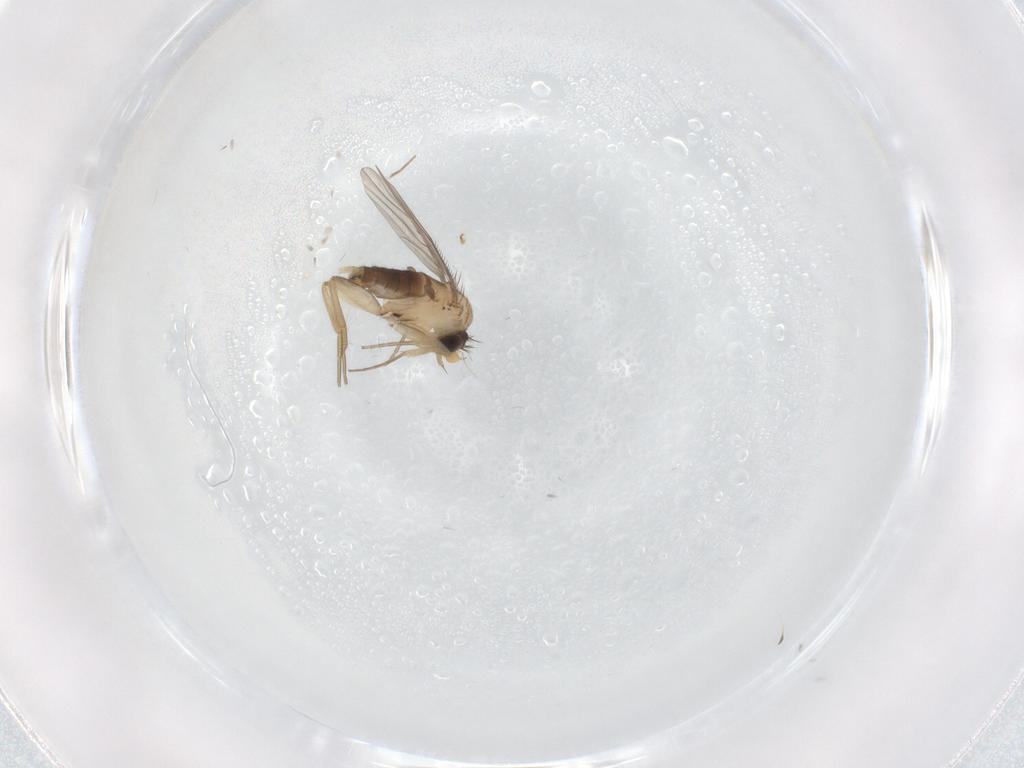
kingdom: Animalia
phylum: Arthropoda
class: Insecta
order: Diptera
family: Phoridae
